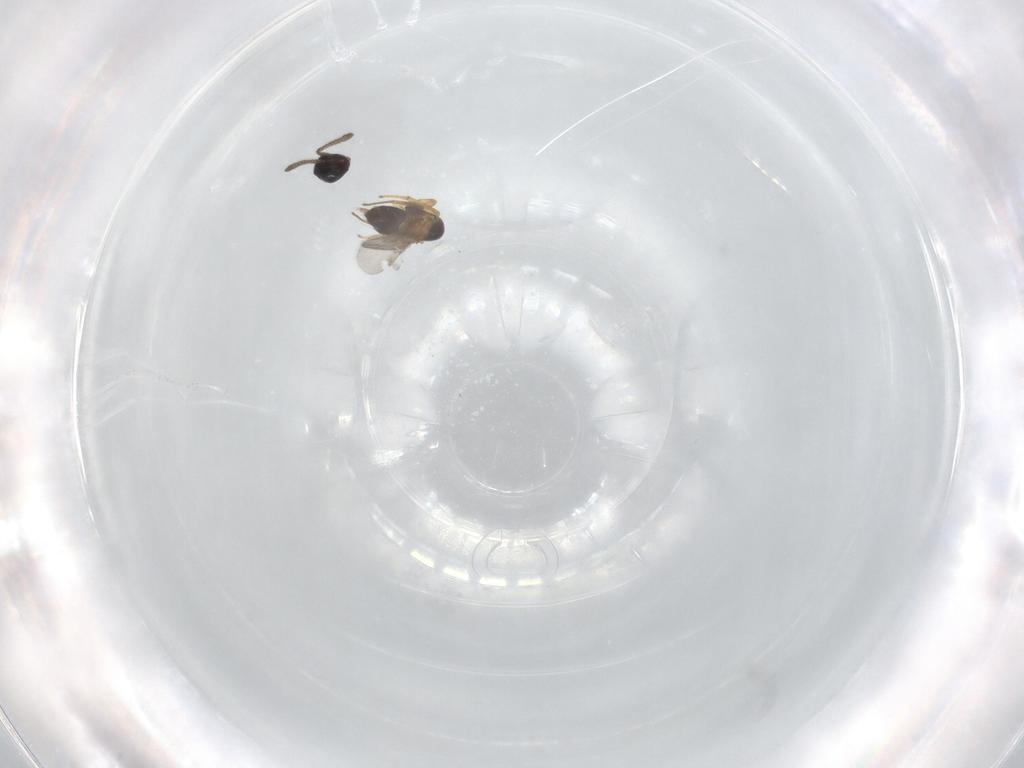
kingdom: Animalia
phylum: Arthropoda
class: Insecta
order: Hymenoptera
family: Encyrtidae
